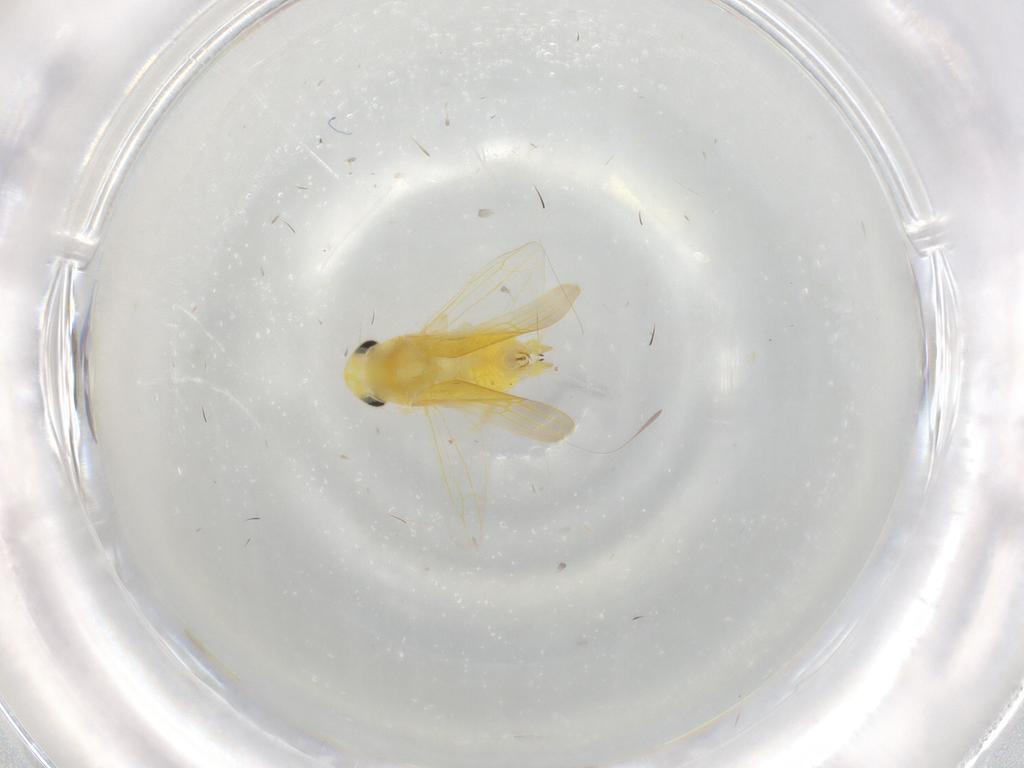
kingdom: Animalia
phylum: Arthropoda
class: Insecta
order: Hemiptera
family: Cicadellidae
